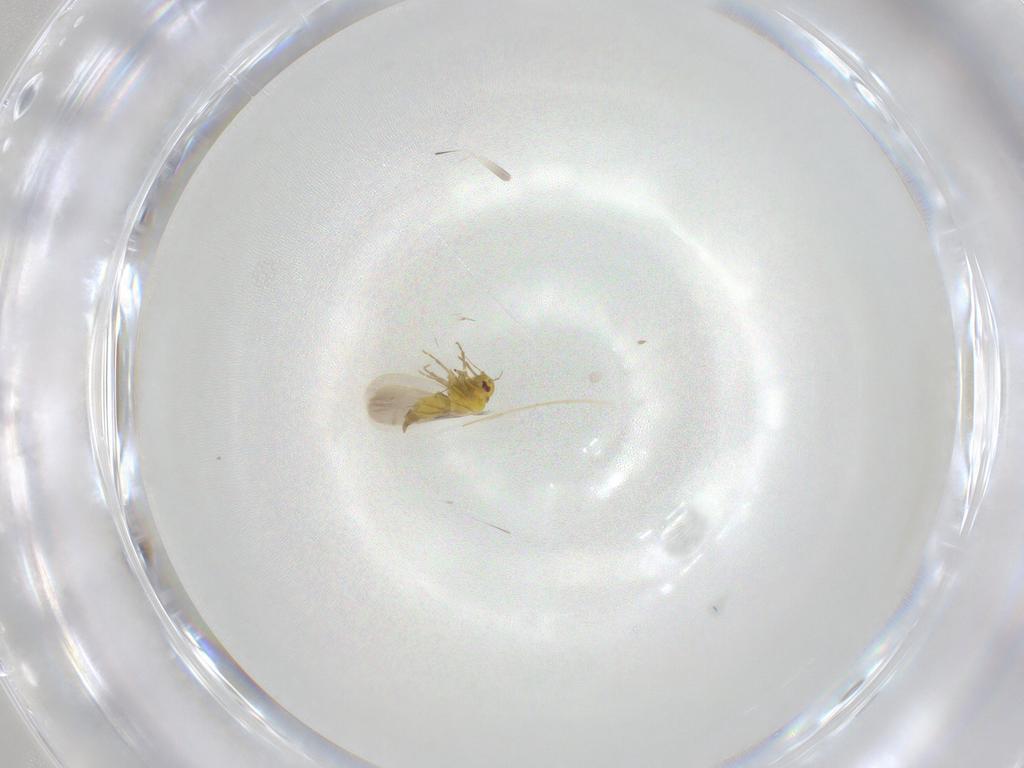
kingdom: Animalia
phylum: Arthropoda
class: Insecta
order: Hemiptera
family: Aleyrodidae
